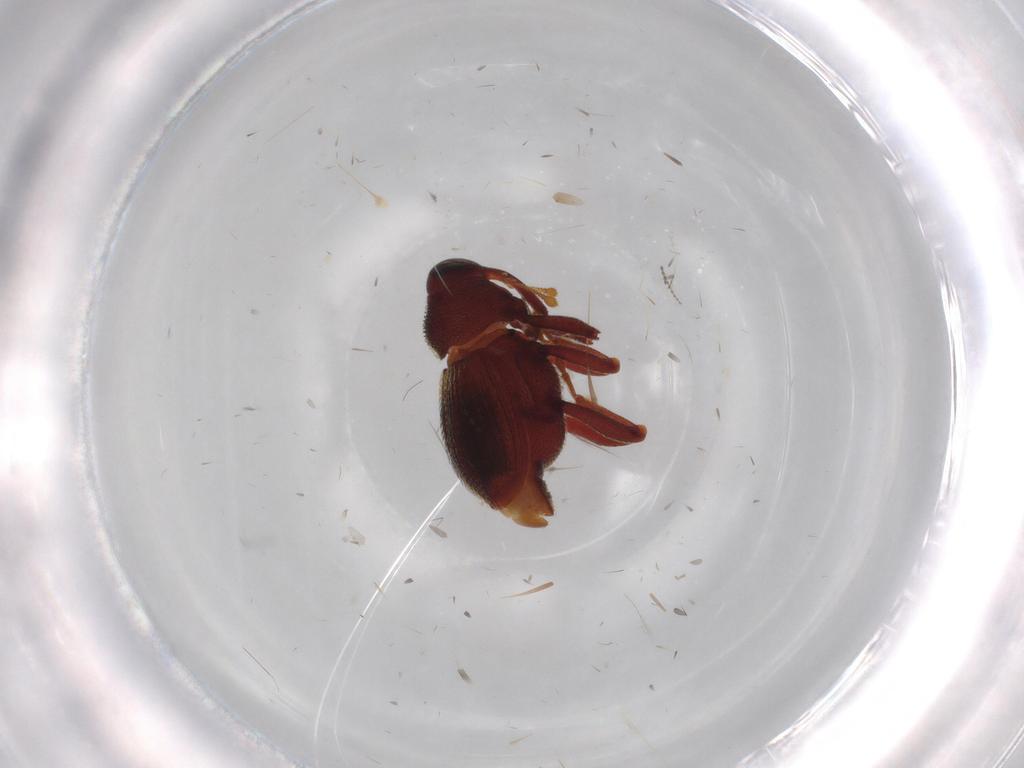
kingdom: Animalia
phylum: Arthropoda
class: Insecta
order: Coleoptera
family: Mycetophagidae
